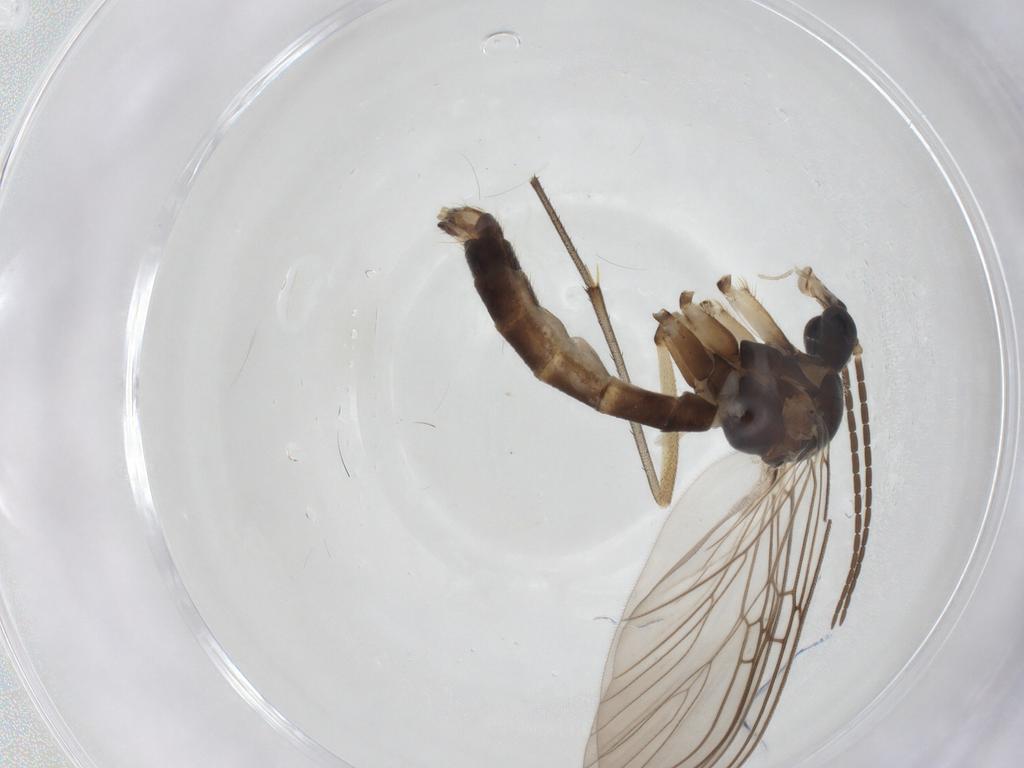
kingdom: Animalia
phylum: Arthropoda
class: Insecta
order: Diptera
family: Mycetophilidae
